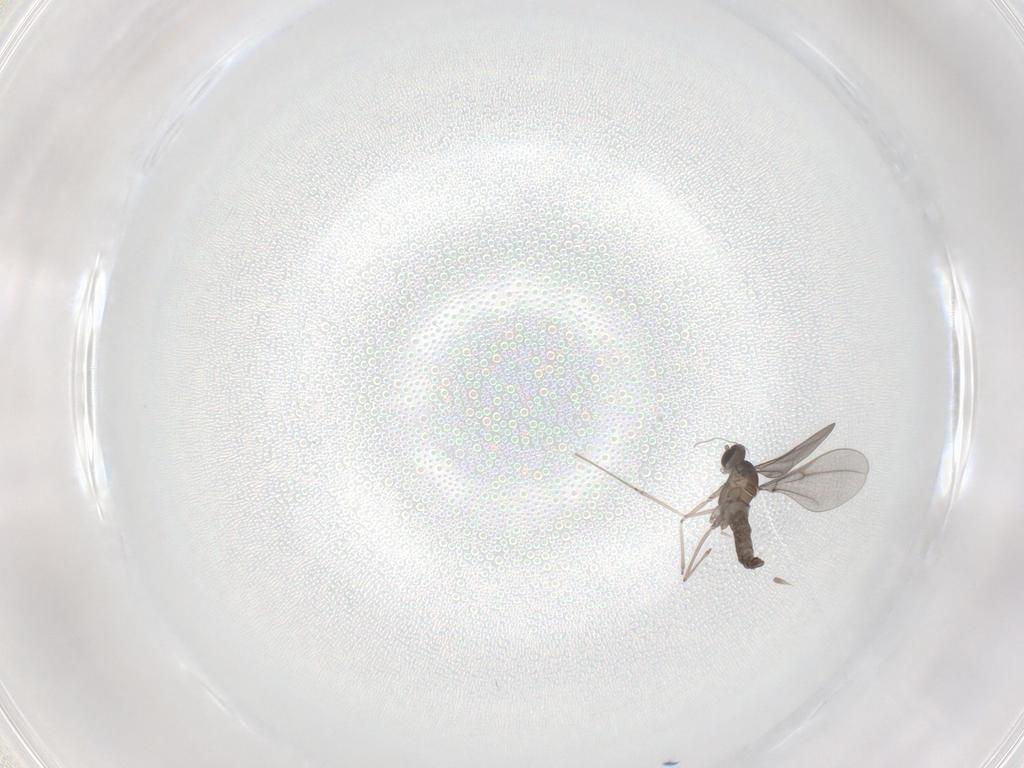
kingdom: Animalia
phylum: Arthropoda
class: Insecta
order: Diptera
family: Cecidomyiidae
